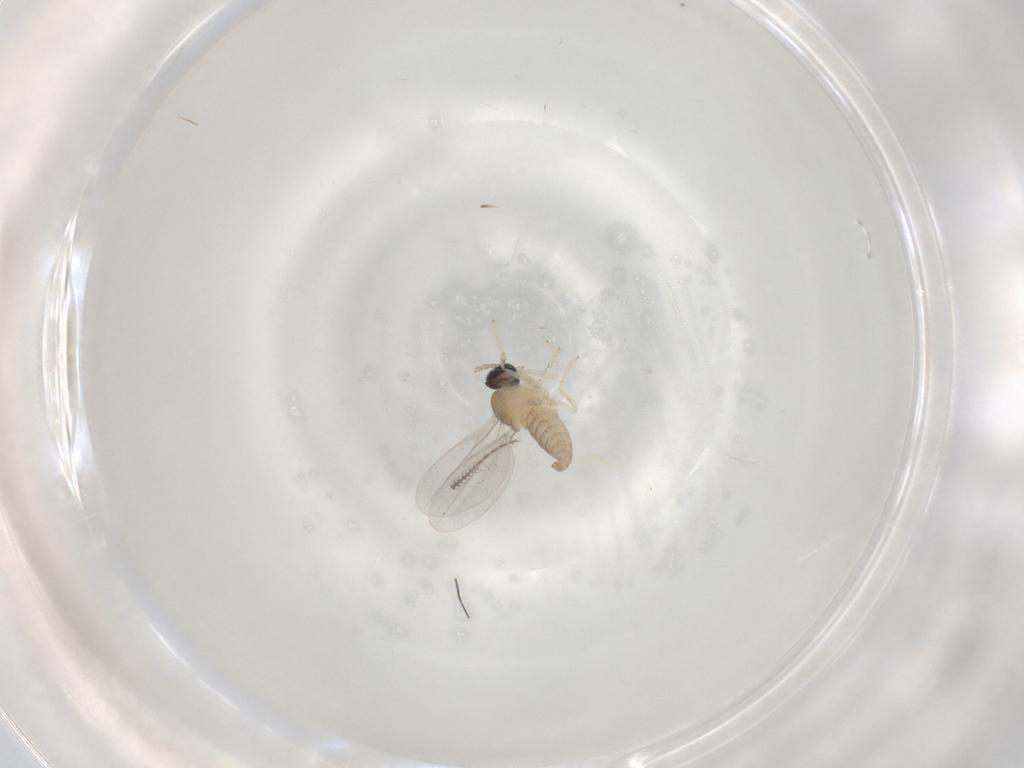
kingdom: Animalia
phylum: Arthropoda
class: Insecta
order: Diptera
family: Cecidomyiidae
